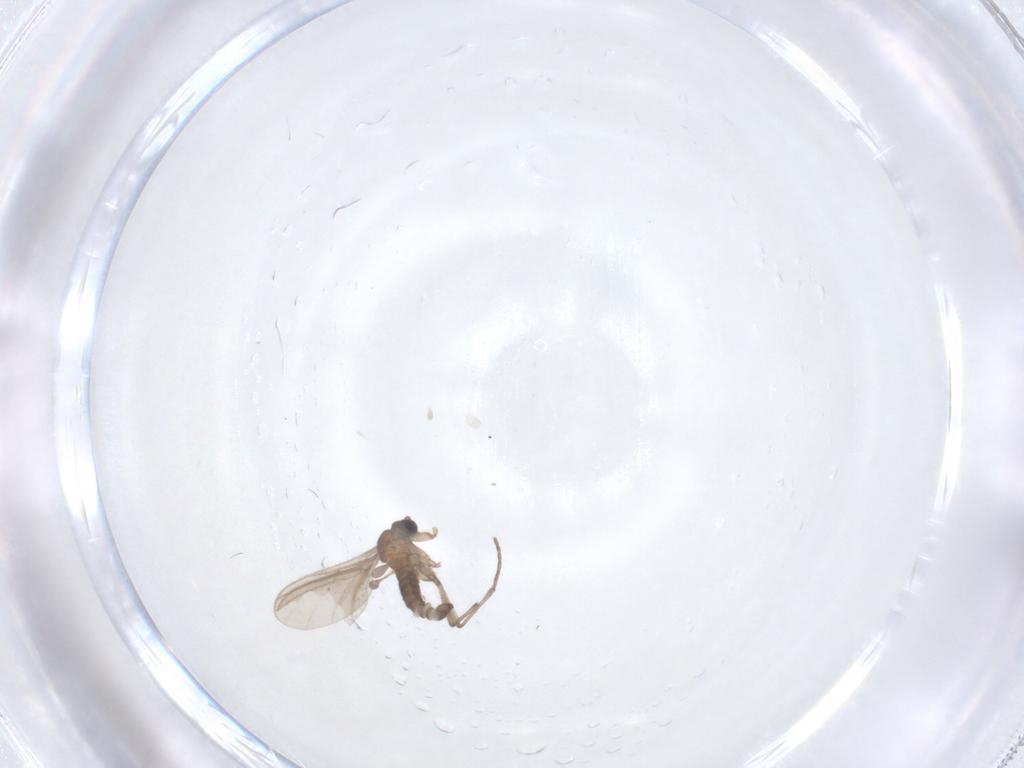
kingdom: Animalia
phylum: Arthropoda
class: Insecta
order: Diptera
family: Sciaridae
